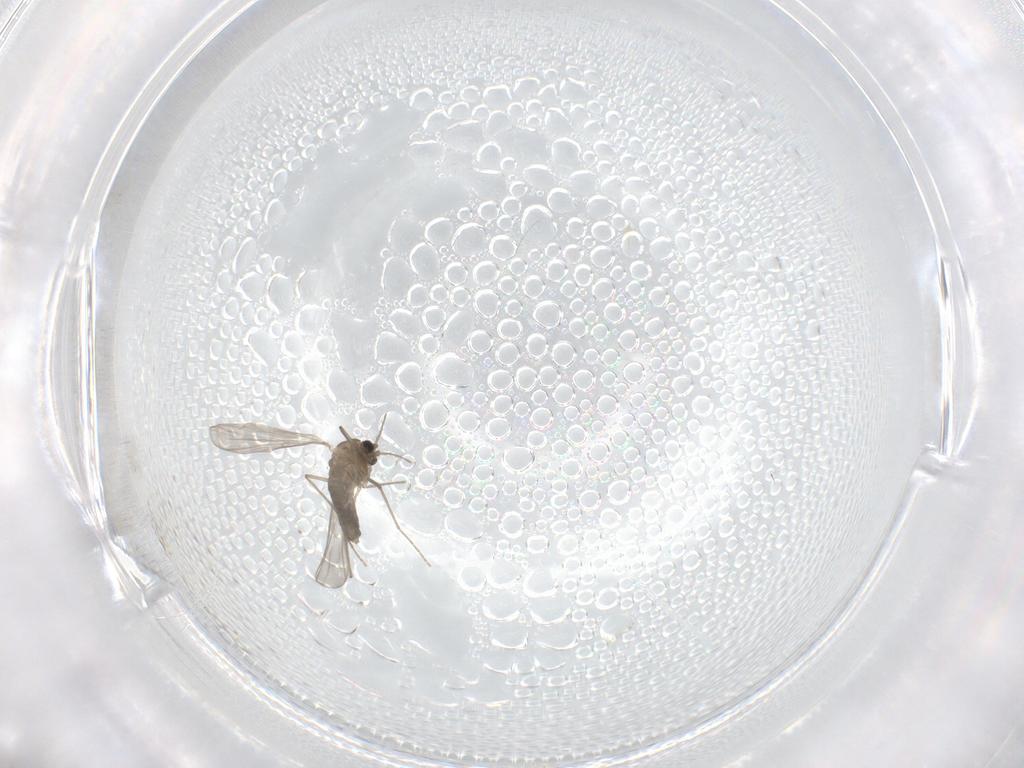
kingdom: Animalia
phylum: Arthropoda
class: Insecta
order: Diptera
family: Chironomidae
